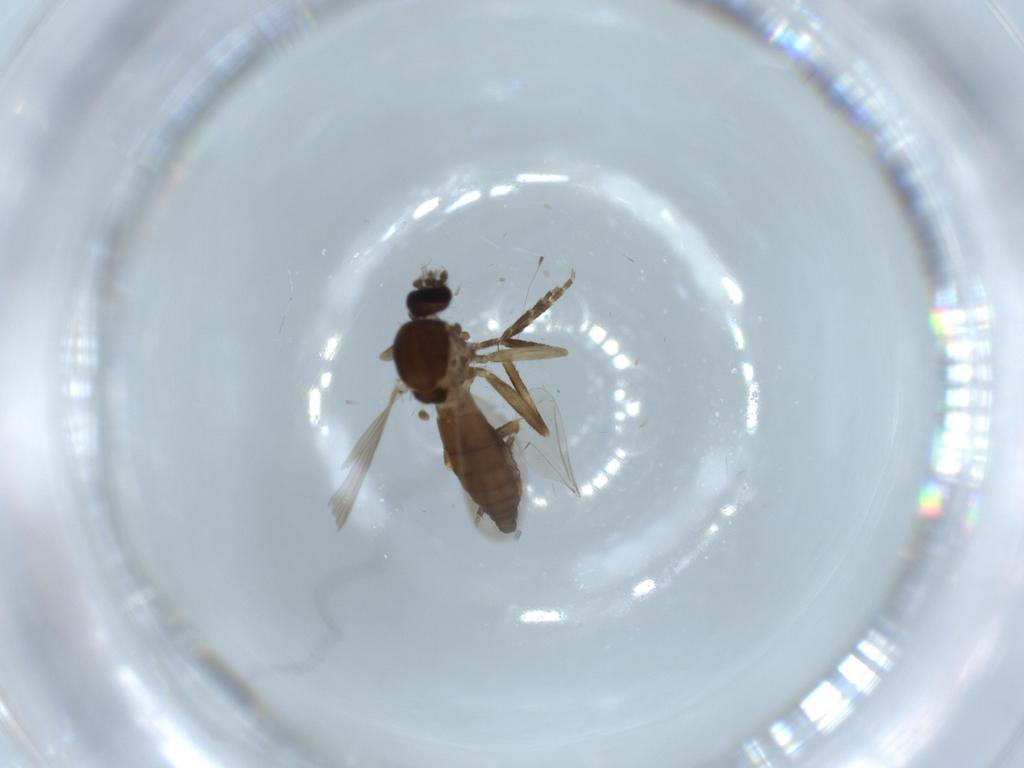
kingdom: Animalia
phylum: Arthropoda
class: Insecta
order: Diptera
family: Ceratopogonidae
